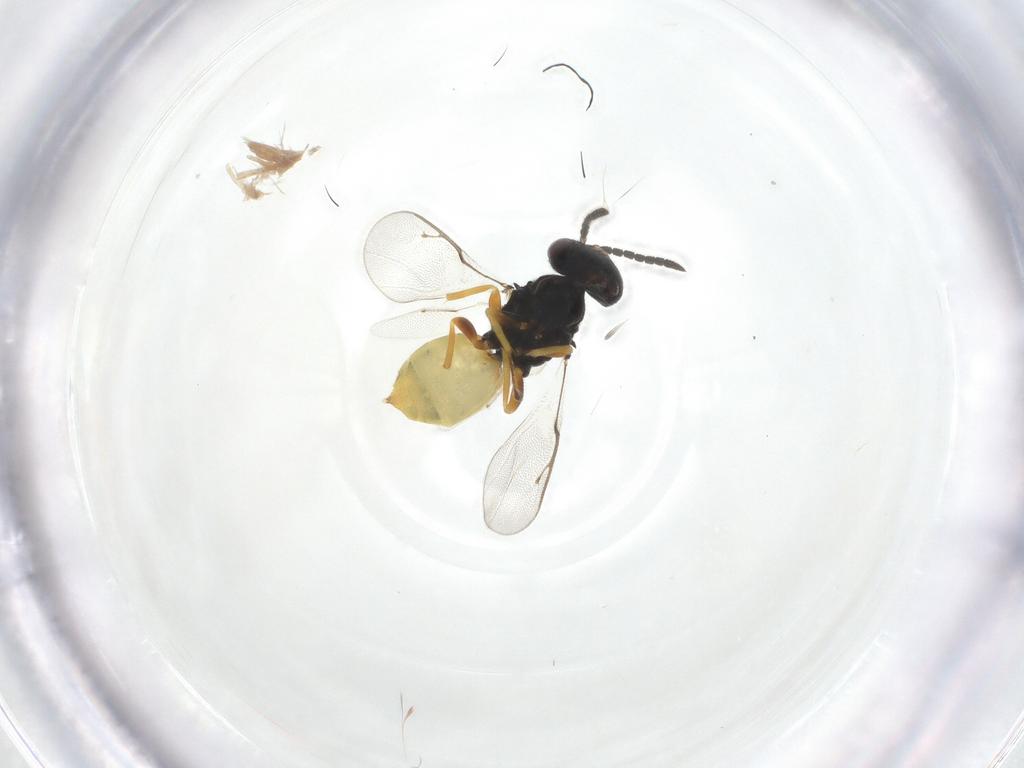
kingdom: Animalia
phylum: Arthropoda
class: Insecta
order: Hymenoptera
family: Pteromalidae
